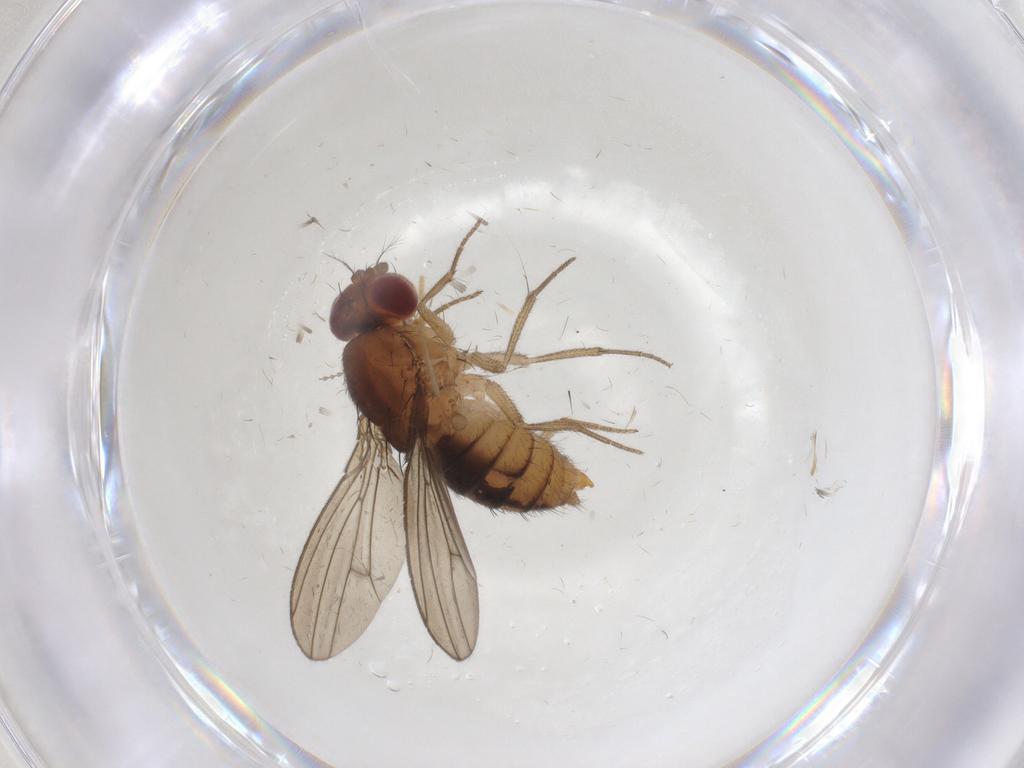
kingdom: Animalia
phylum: Arthropoda
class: Insecta
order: Diptera
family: Drosophilidae
